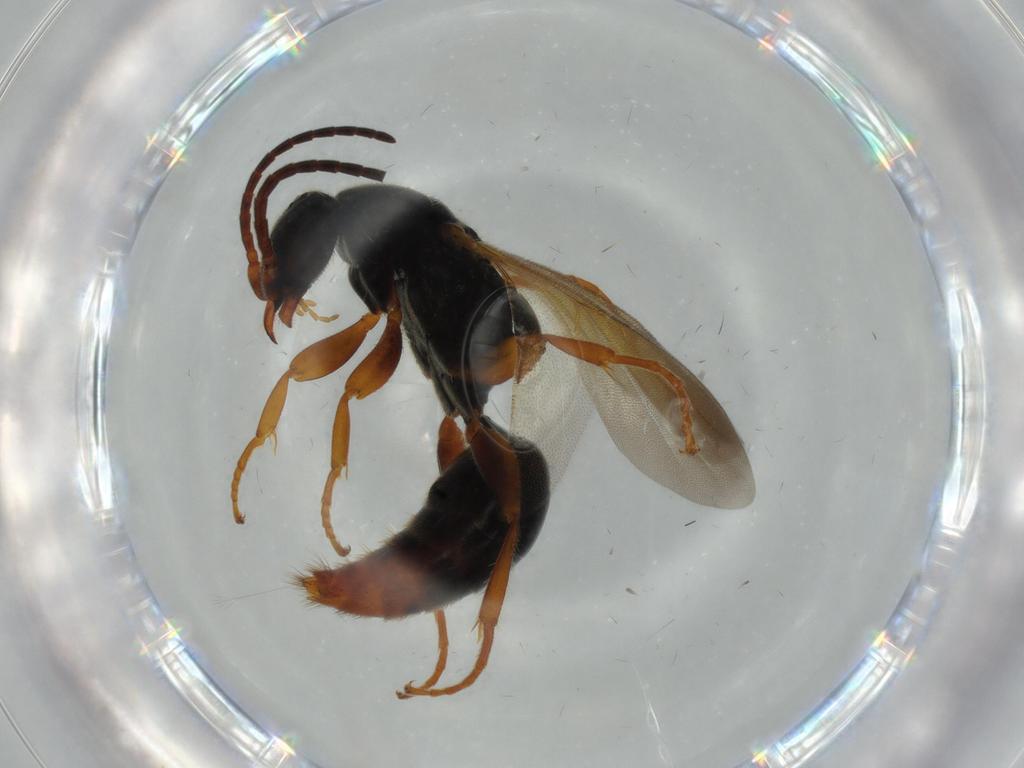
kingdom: Animalia
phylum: Arthropoda
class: Insecta
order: Hymenoptera
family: Bethylidae
